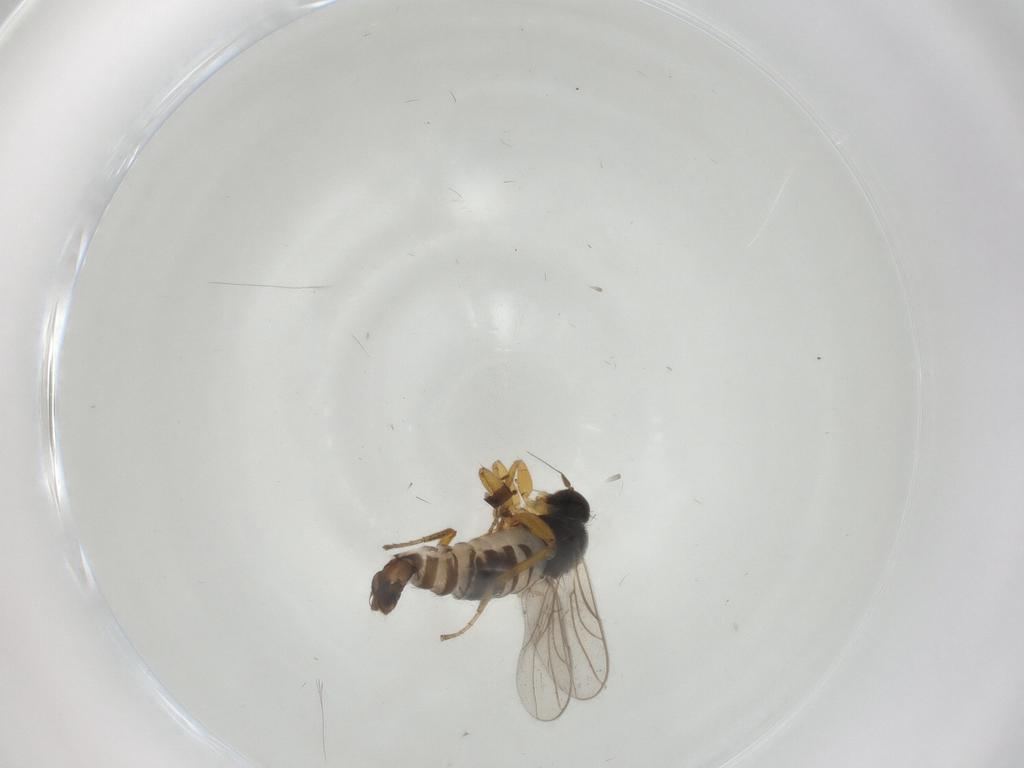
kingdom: Animalia
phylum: Arthropoda
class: Insecta
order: Diptera
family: Hybotidae
